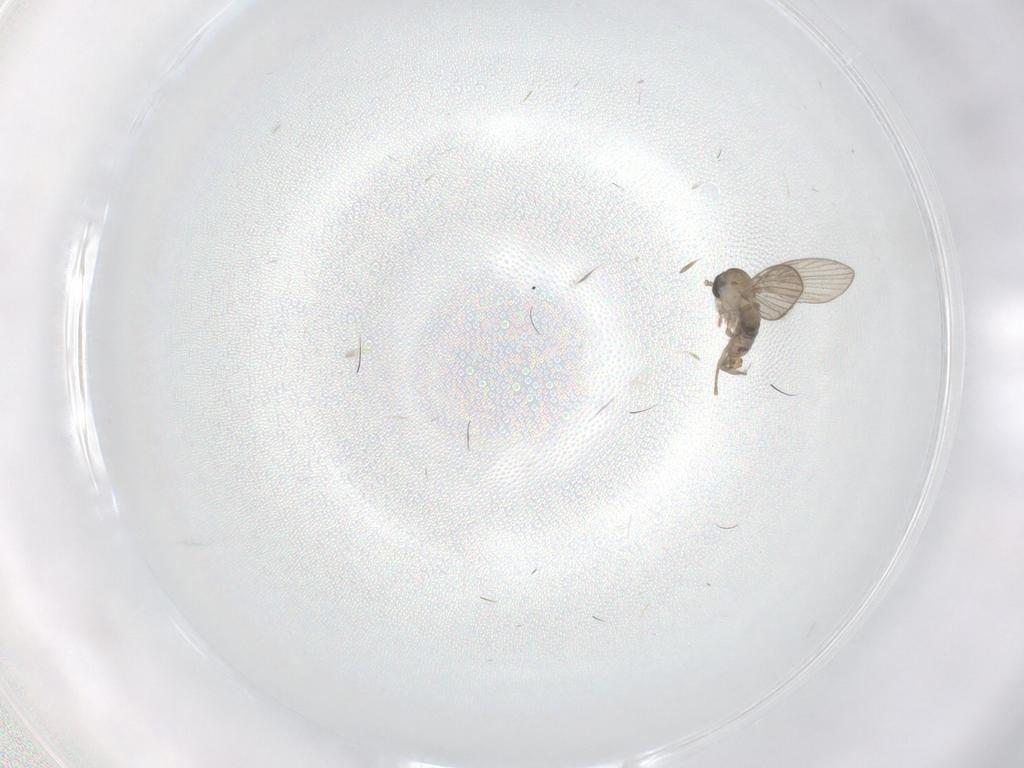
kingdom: Animalia
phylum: Arthropoda
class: Insecta
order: Diptera
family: Psychodidae
